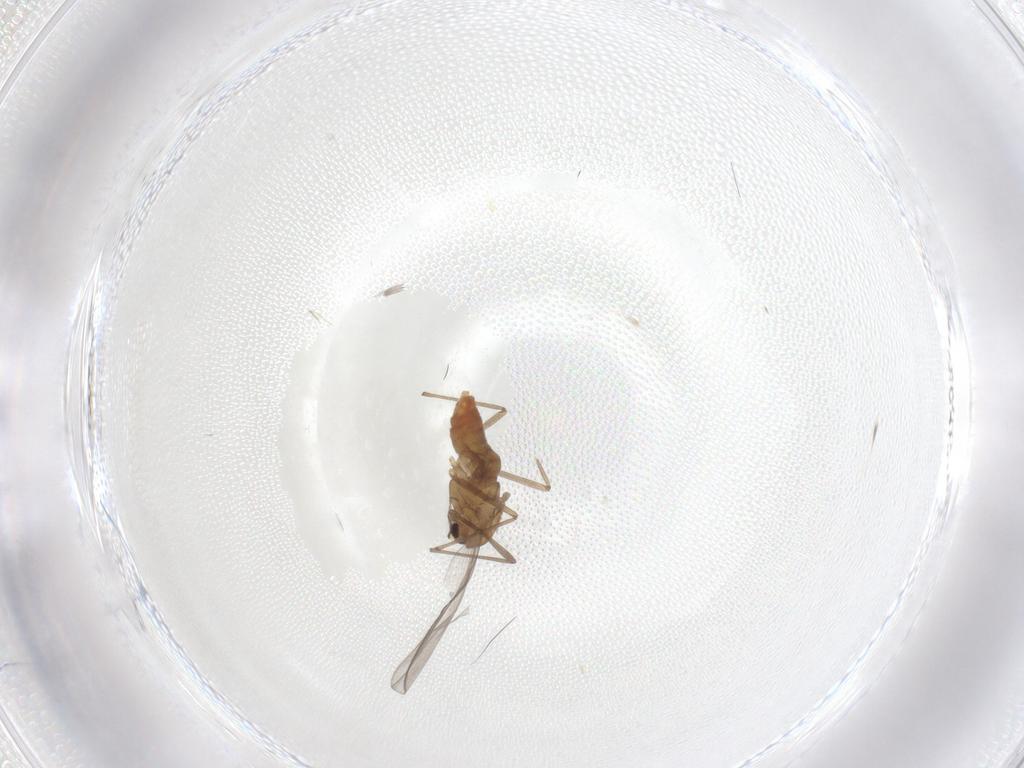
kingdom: Animalia
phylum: Arthropoda
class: Insecta
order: Diptera
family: Chironomidae
